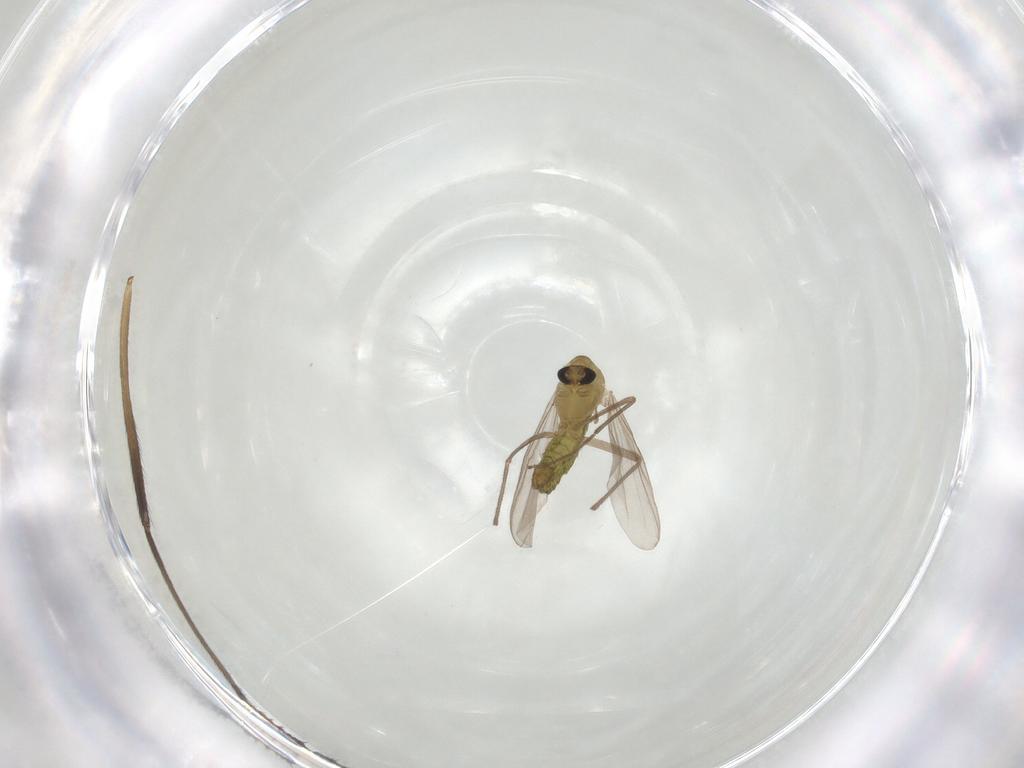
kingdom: Animalia
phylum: Arthropoda
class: Insecta
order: Diptera
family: Chironomidae
